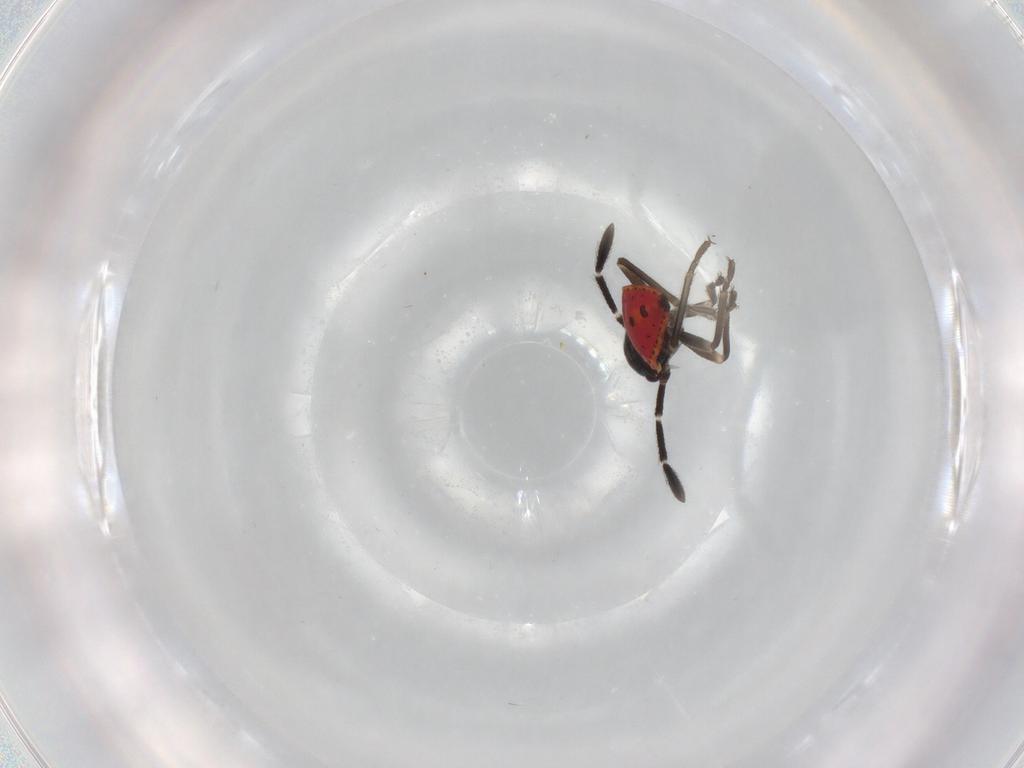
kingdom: Animalia
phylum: Arthropoda
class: Insecta
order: Hemiptera
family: Lygaeidae
